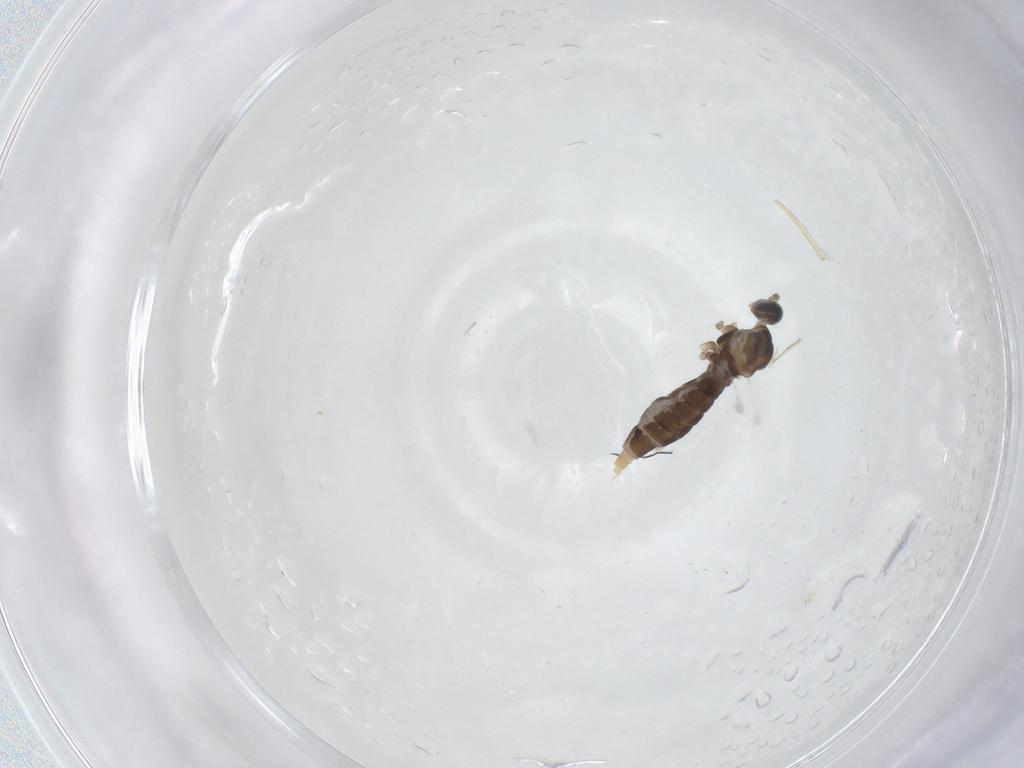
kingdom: Animalia
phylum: Arthropoda
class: Insecta
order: Diptera
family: Cecidomyiidae
